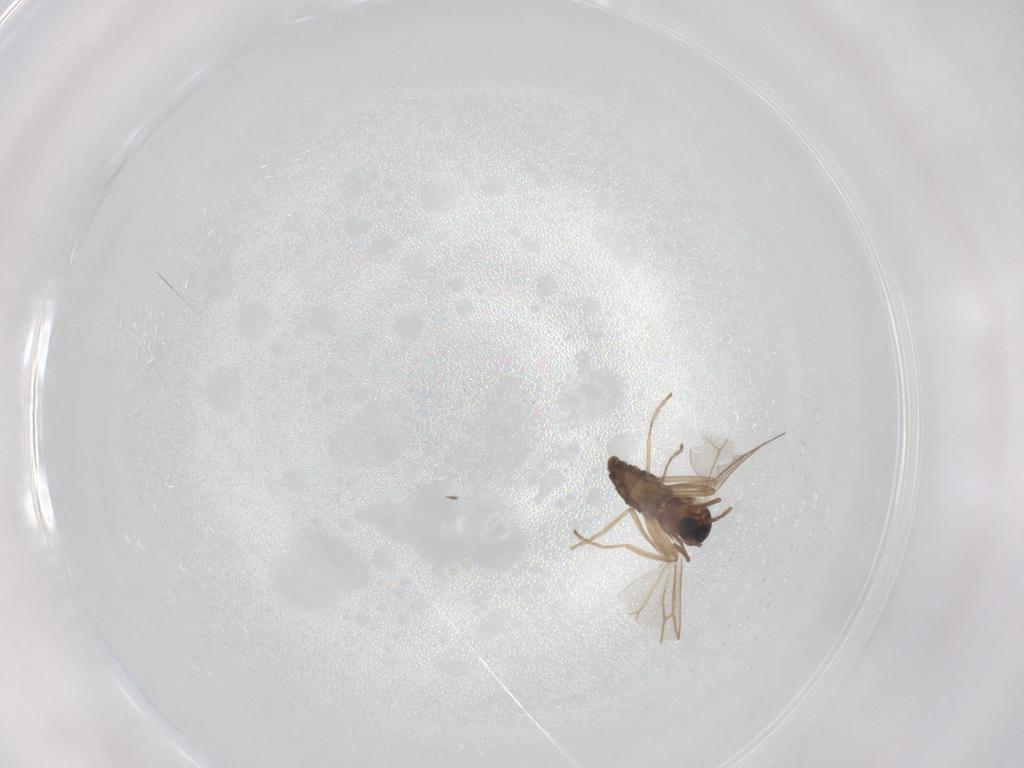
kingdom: Animalia
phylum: Arthropoda
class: Insecta
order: Diptera
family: Cecidomyiidae
